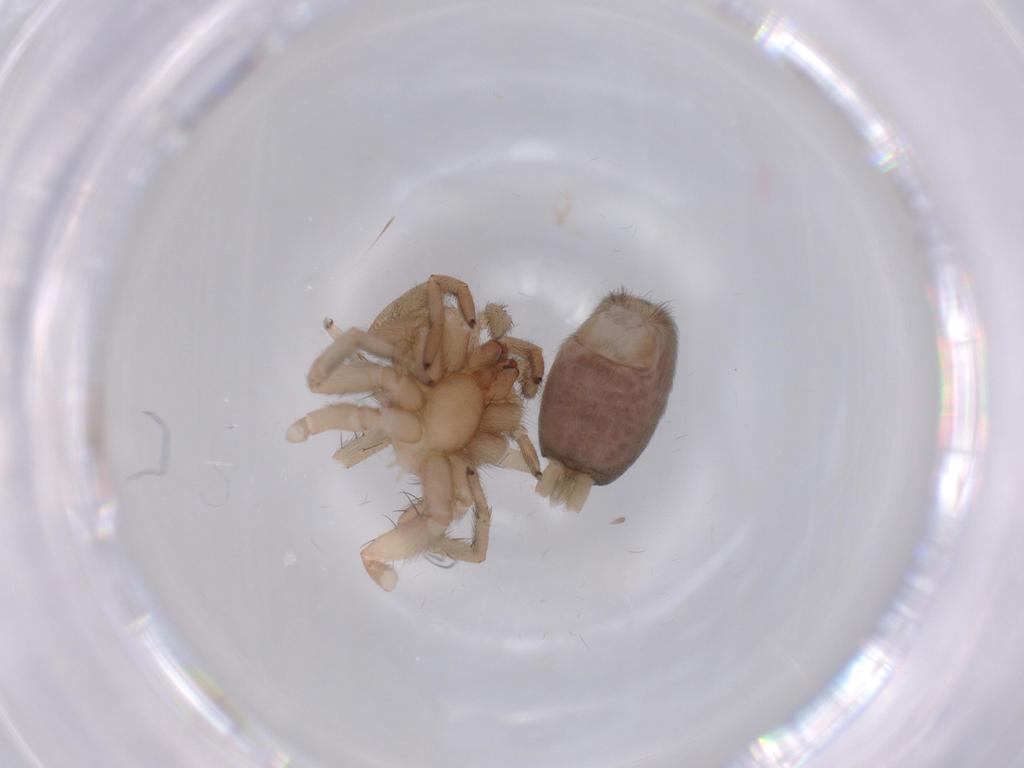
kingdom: Animalia
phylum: Arthropoda
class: Arachnida
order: Araneae
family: Gnaphosidae
